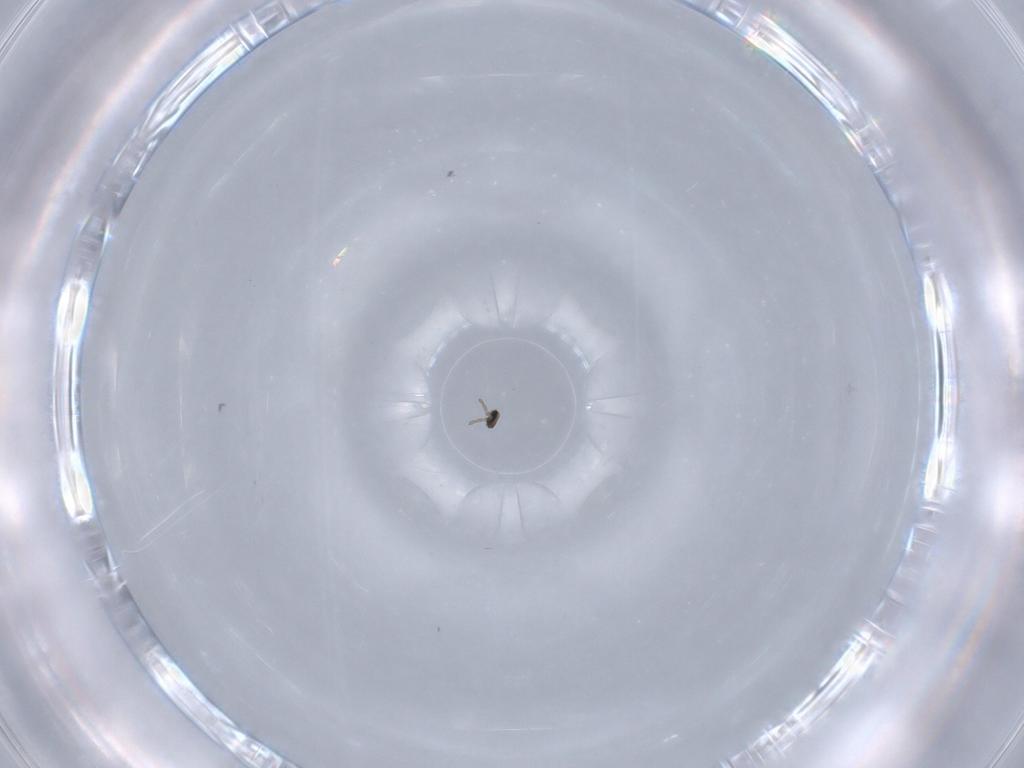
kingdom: Animalia
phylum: Arthropoda
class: Insecta
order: Diptera
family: Cecidomyiidae
